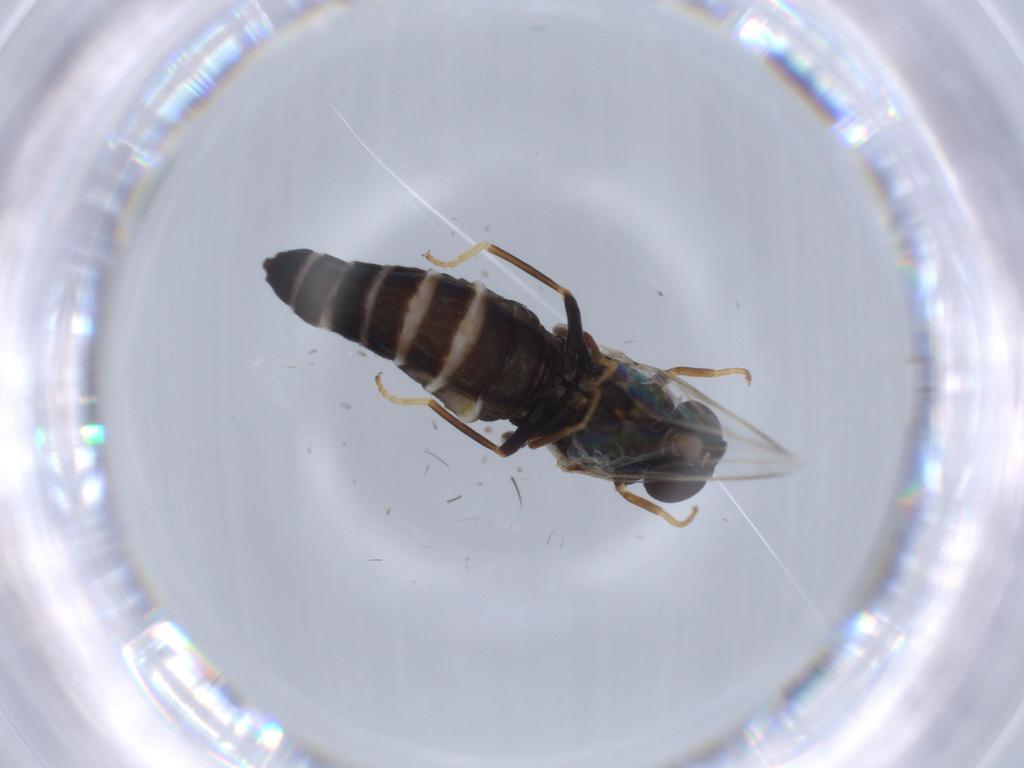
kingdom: Animalia
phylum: Arthropoda
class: Insecta
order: Diptera
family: Scenopinidae
